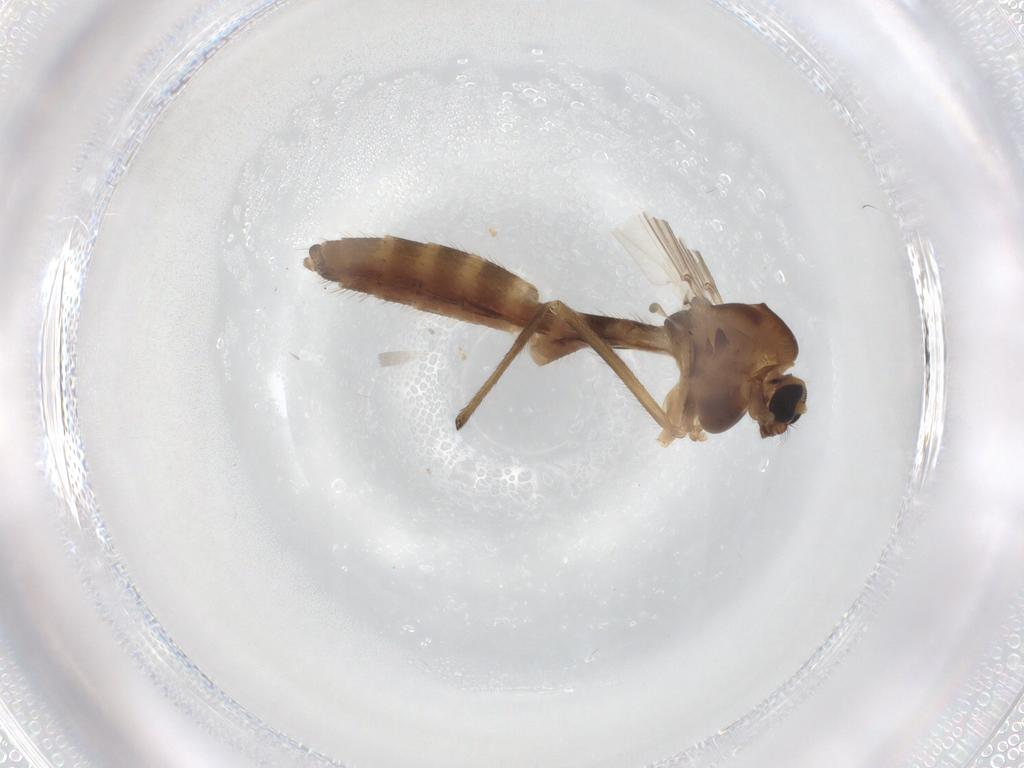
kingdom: Animalia
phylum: Arthropoda
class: Insecta
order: Diptera
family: Chironomidae
